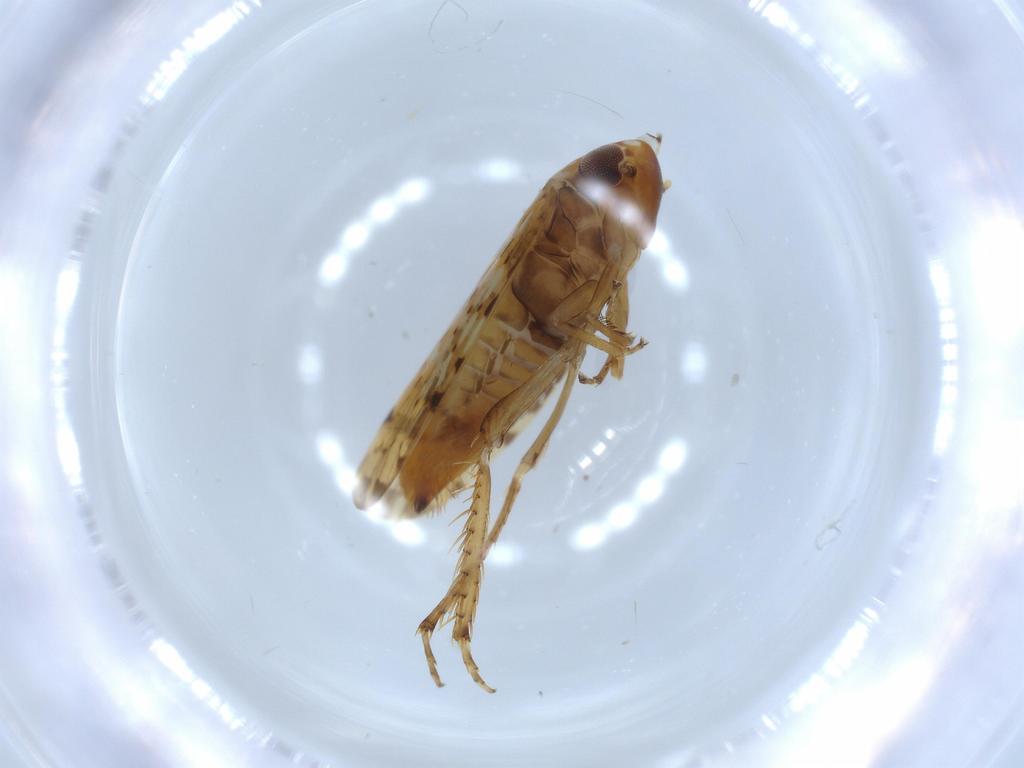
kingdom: Animalia
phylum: Arthropoda
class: Insecta
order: Hemiptera
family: Cicadellidae
